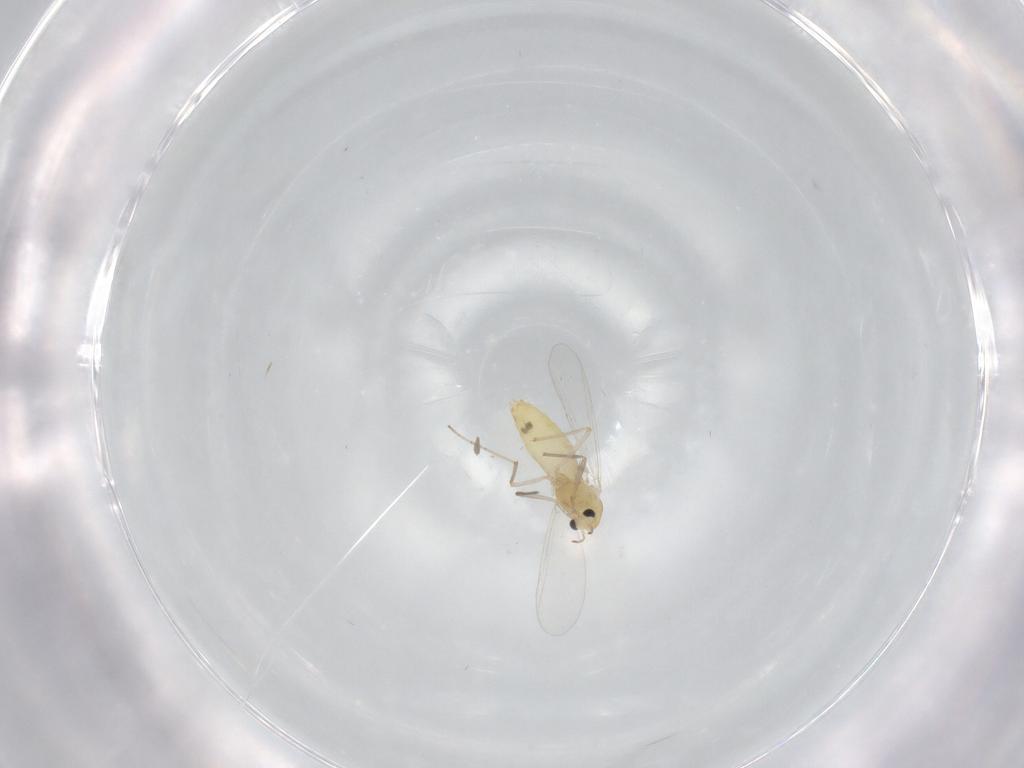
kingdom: Animalia
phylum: Arthropoda
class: Insecta
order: Diptera
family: Chironomidae
